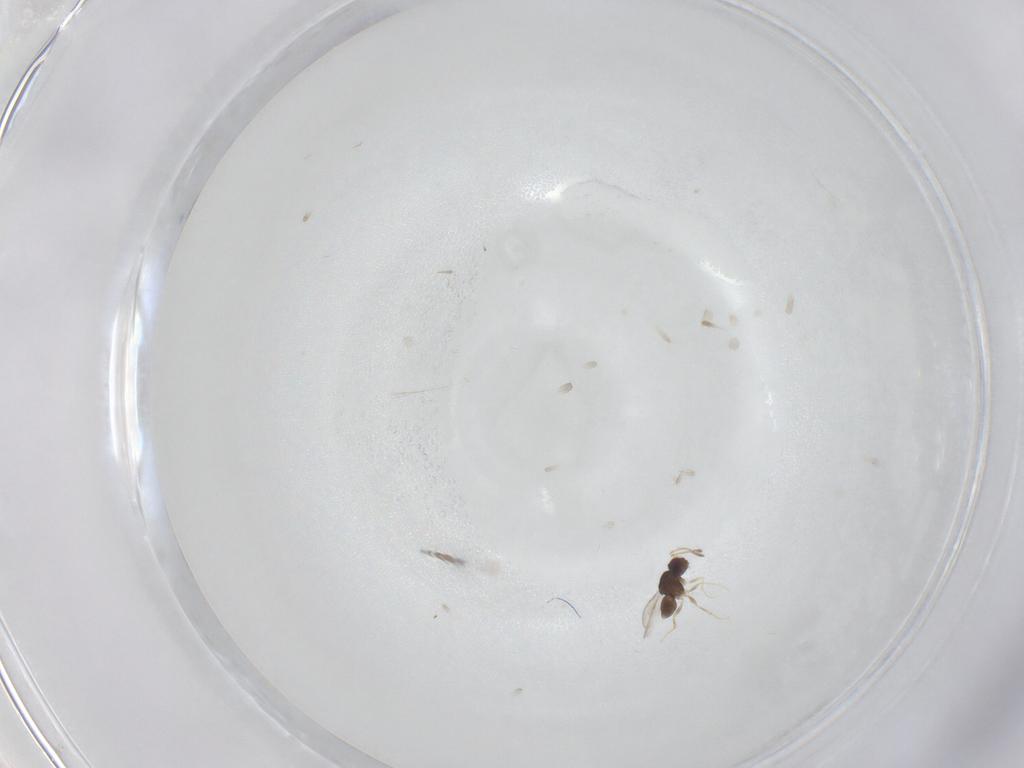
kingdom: Animalia
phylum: Arthropoda
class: Insecta
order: Hymenoptera
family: Ceraphronidae
